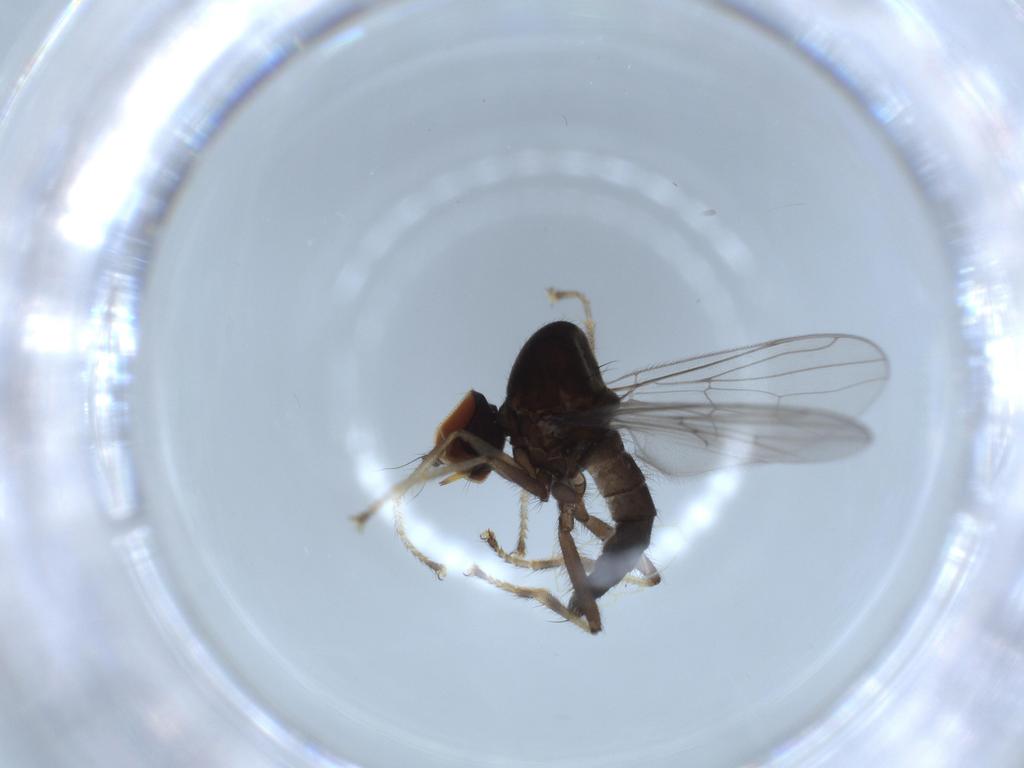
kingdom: Animalia
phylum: Arthropoda
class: Insecta
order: Diptera
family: Hybotidae
